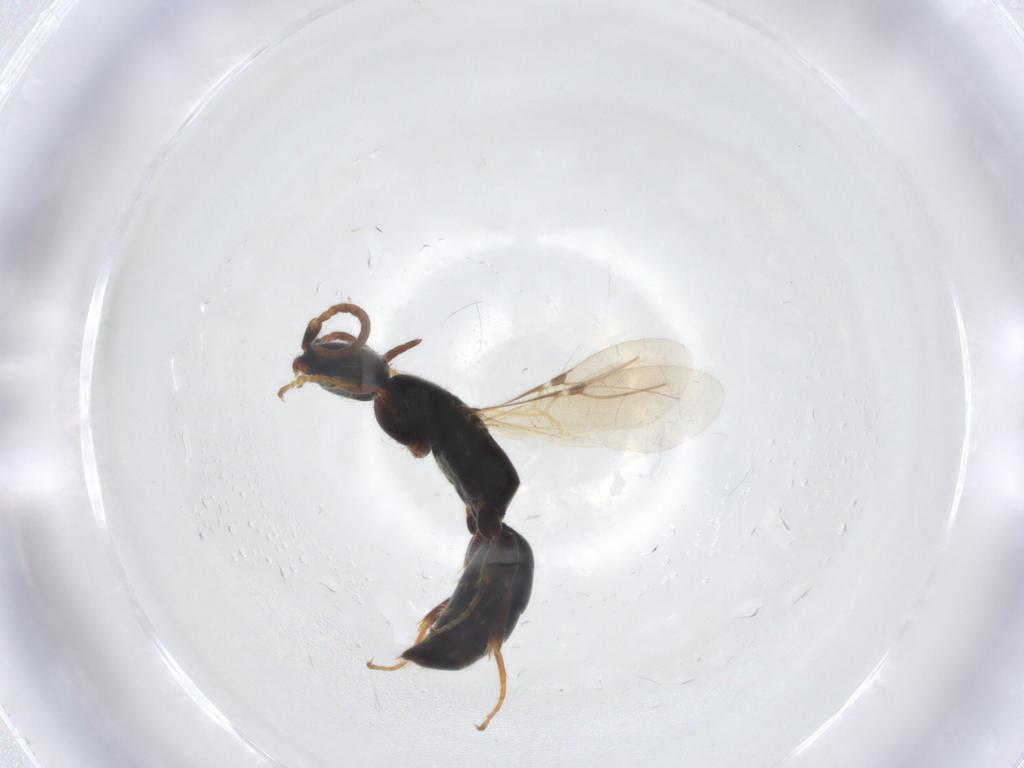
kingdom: Animalia
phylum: Arthropoda
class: Insecta
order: Hymenoptera
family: Bethylidae
